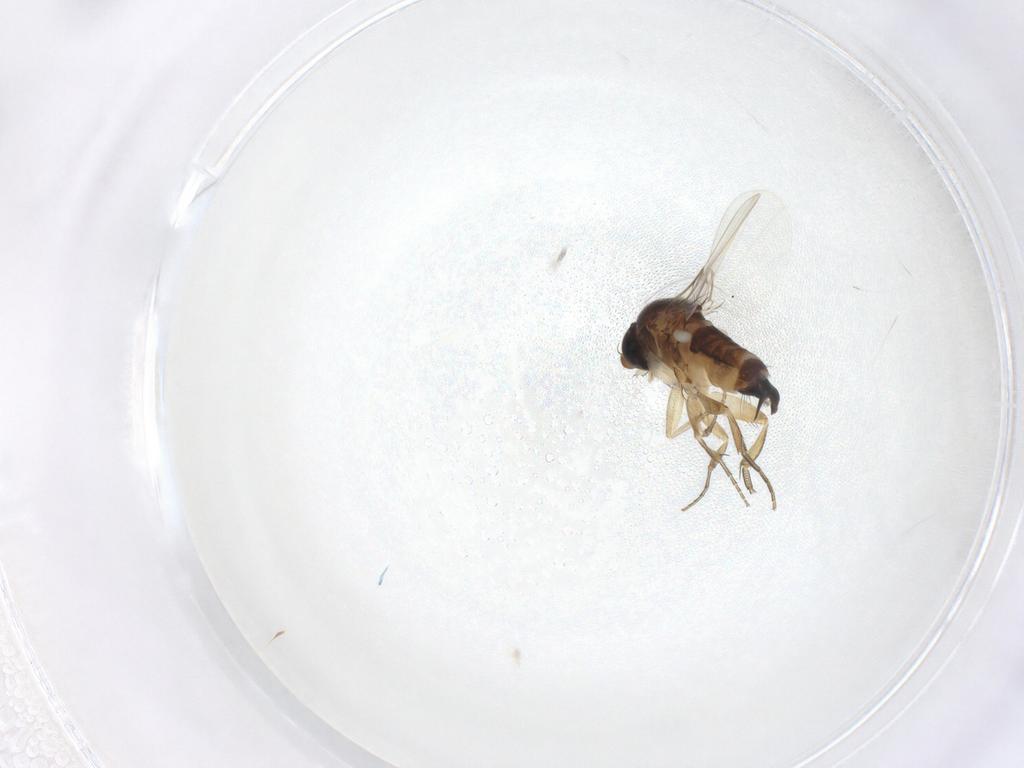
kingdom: Animalia
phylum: Arthropoda
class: Insecta
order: Diptera
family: Phoridae
